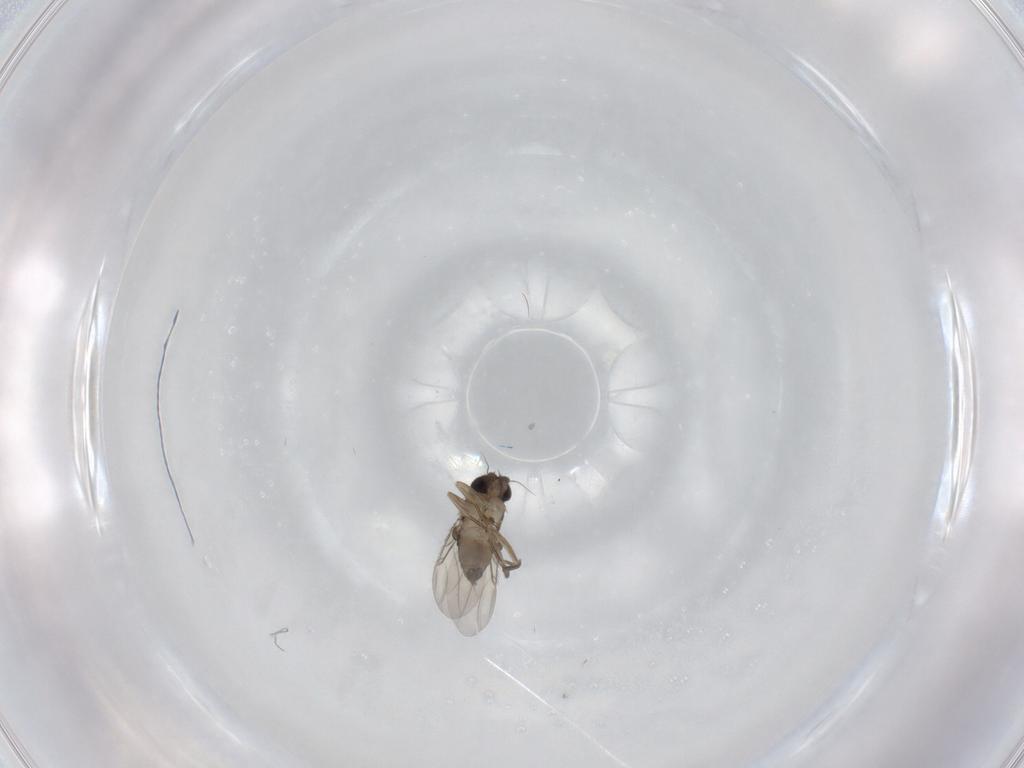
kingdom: Animalia
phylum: Arthropoda
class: Insecta
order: Diptera
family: Phoridae
